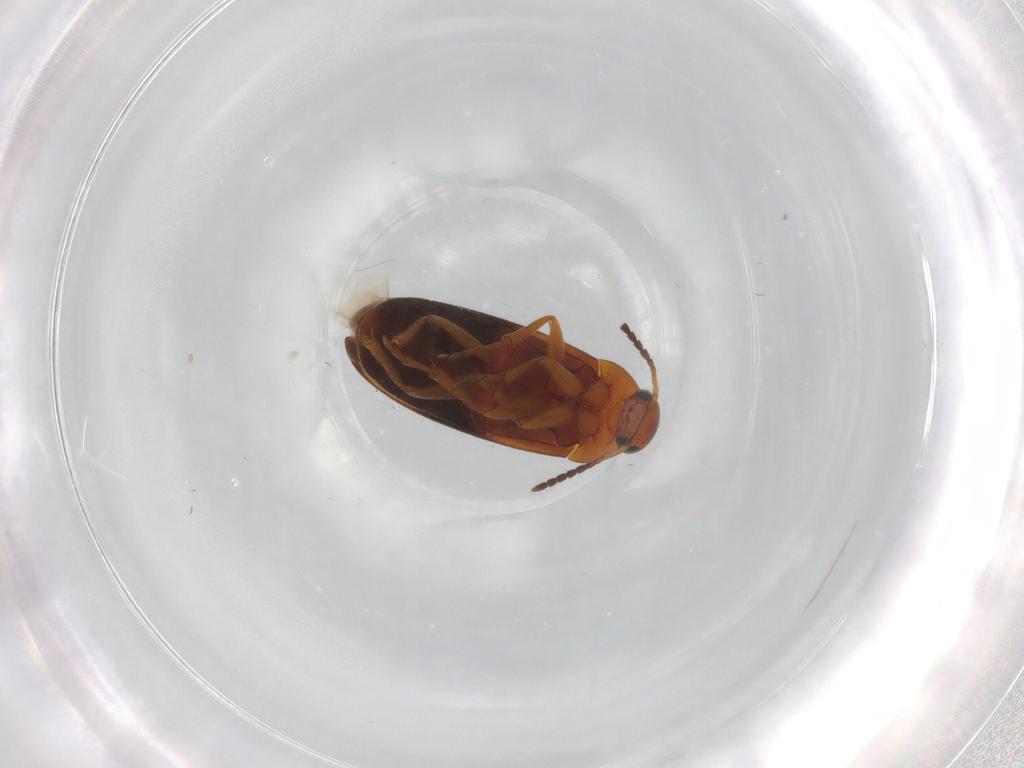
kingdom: Animalia
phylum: Arthropoda
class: Insecta
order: Coleoptera
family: Scraptiidae
